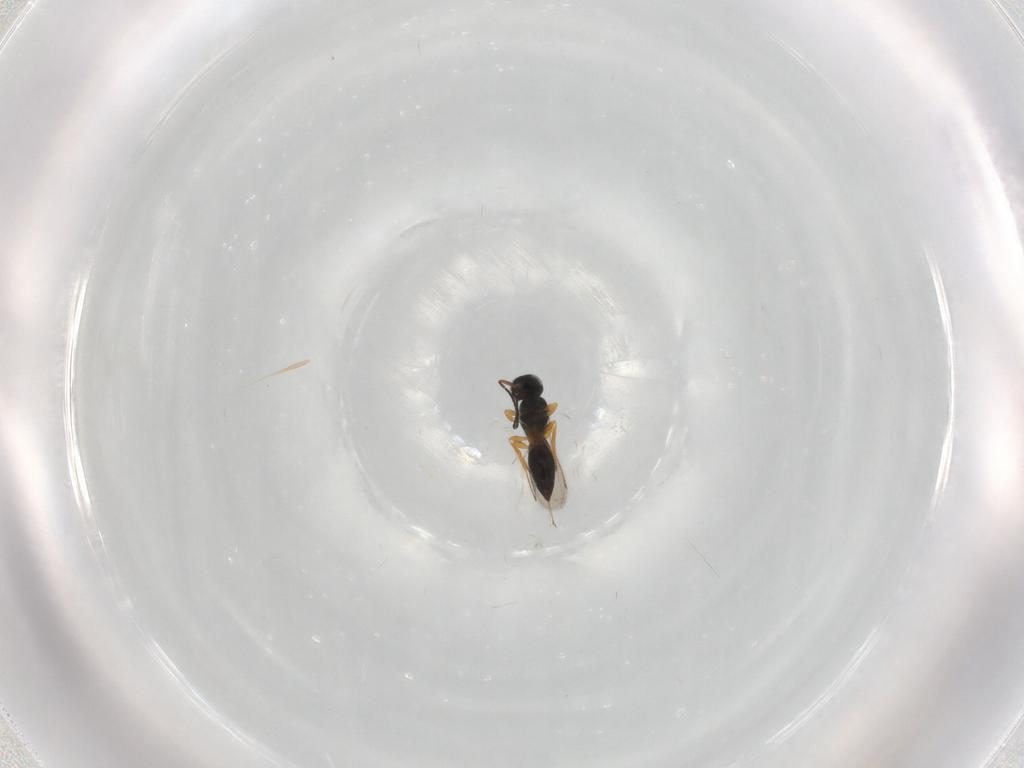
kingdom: Animalia
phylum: Arthropoda
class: Insecta
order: Hymenoptera
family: Scelionidae
